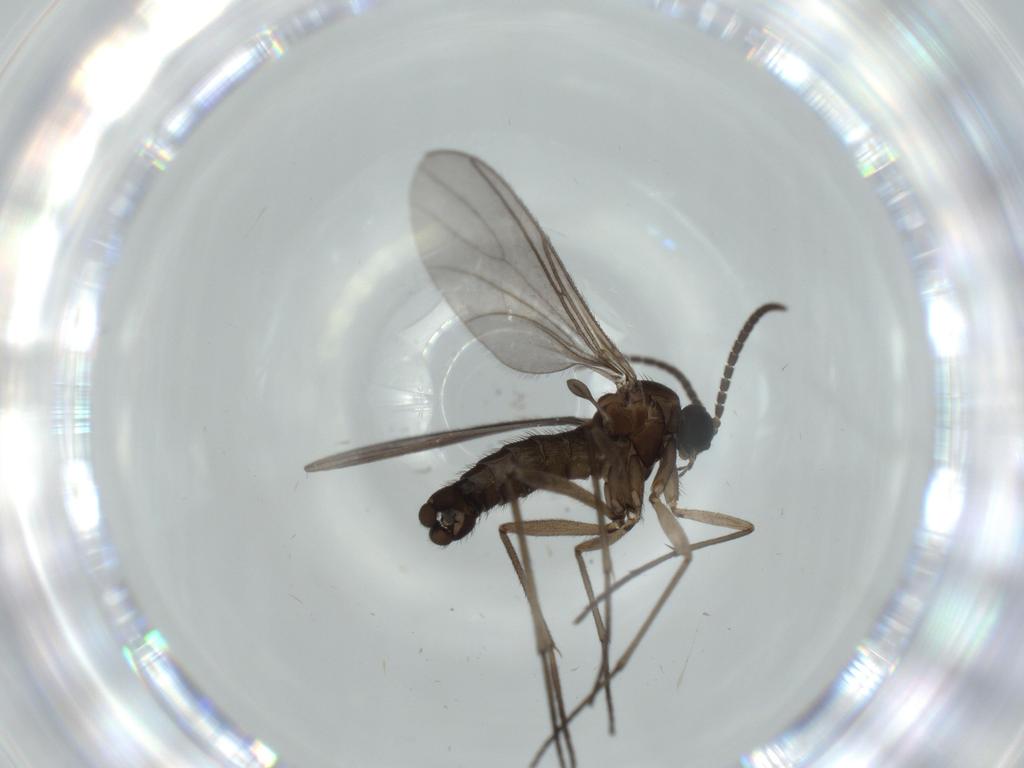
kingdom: Animalia
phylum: Arthropoda
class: Insecta
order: Diptera
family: Sciaridae
